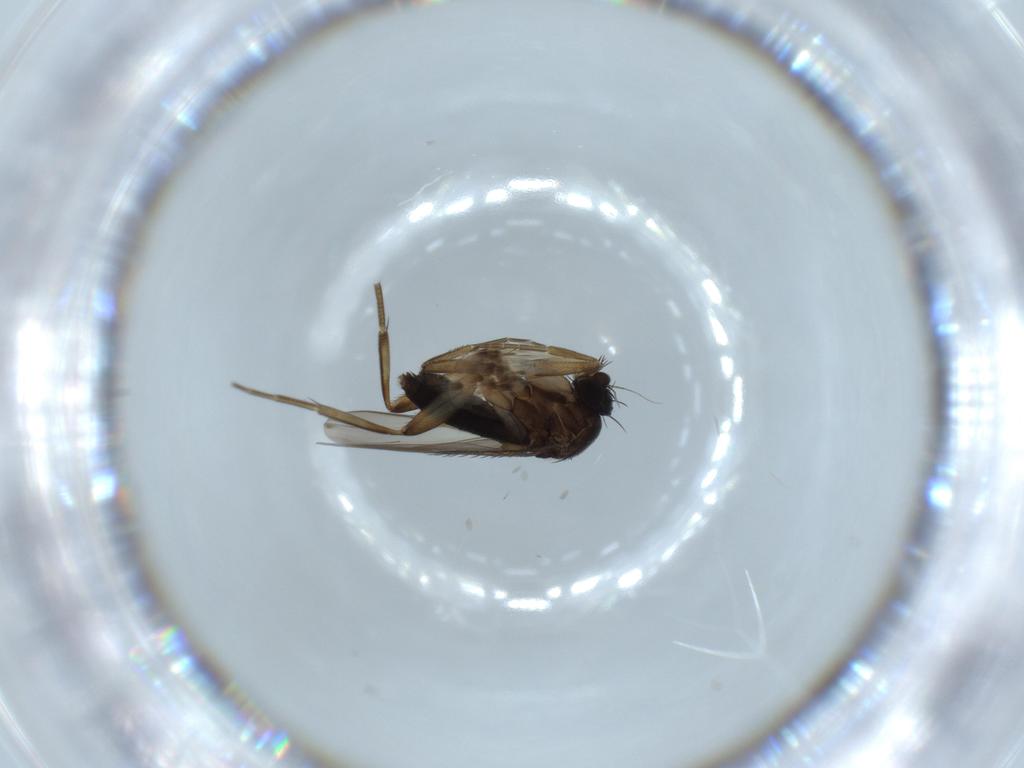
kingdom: Animalia
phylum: Arthropoda
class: Insecta
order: Diptera
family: Phoridae
